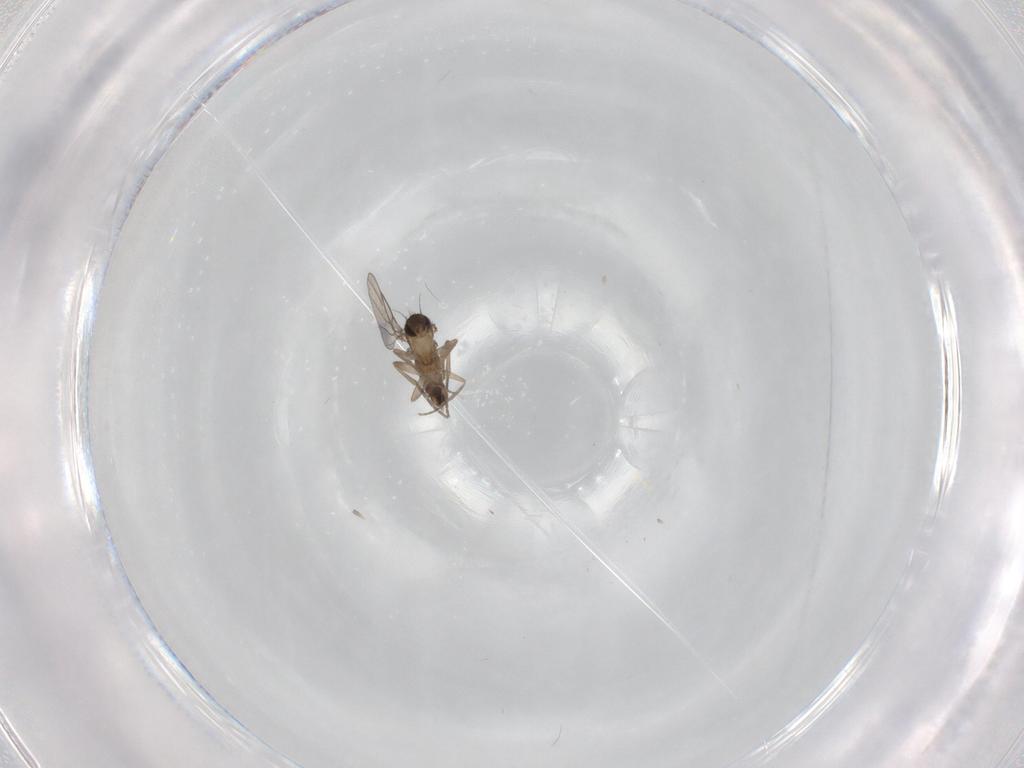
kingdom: Animalia
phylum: Arthropoda
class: Insecta
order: Diptera
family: Phoridae
